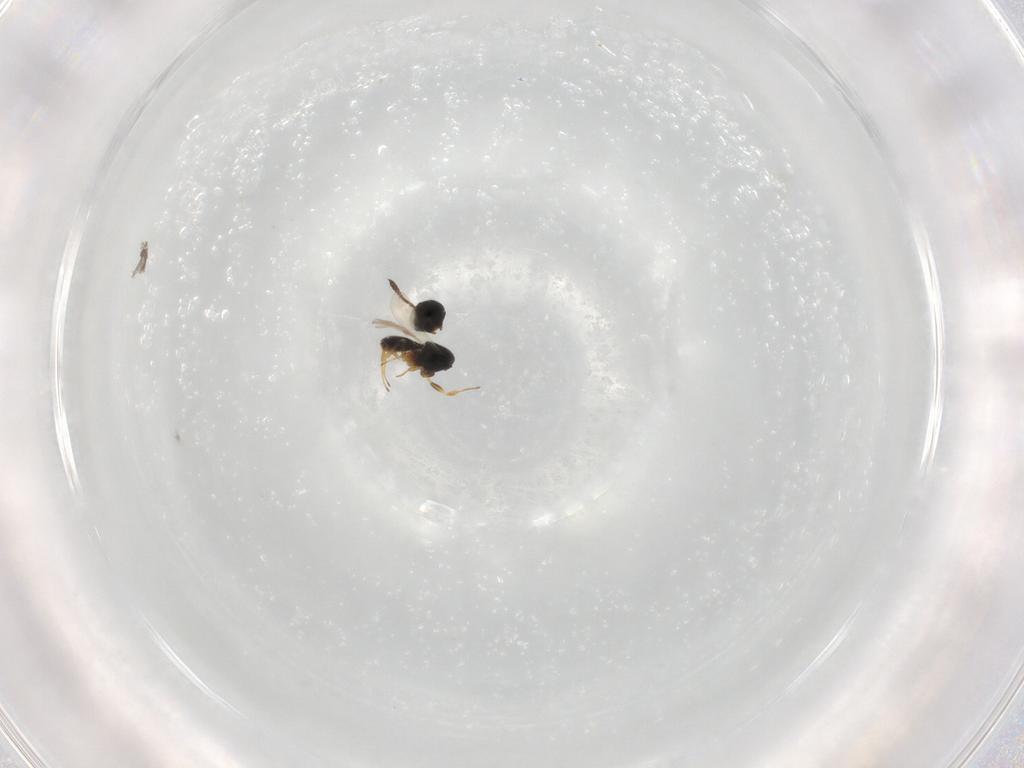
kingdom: Animalia
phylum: Arthropoda
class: Insecta
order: Hymenoptera
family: Scelionidae
